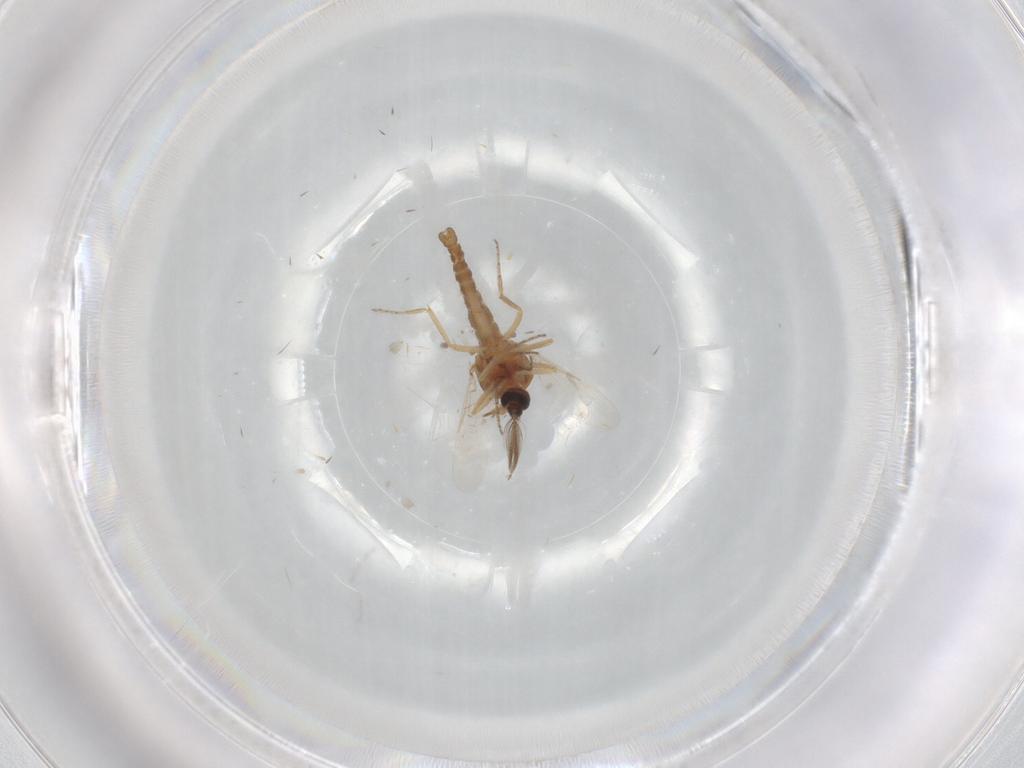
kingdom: Animalia
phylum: Arthropoda
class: Insecta
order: Diptera
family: Ceratopogonidae
